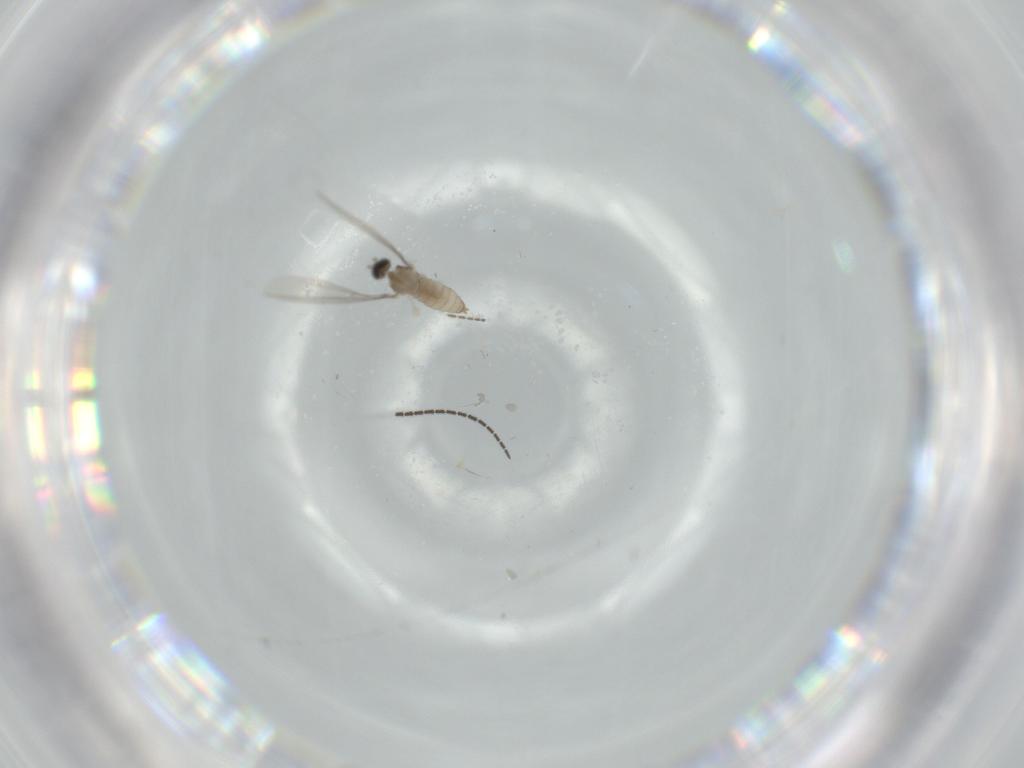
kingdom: Animalia
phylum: Arthropoda
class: Insecta
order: Diptera
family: Ceratopogonidae
